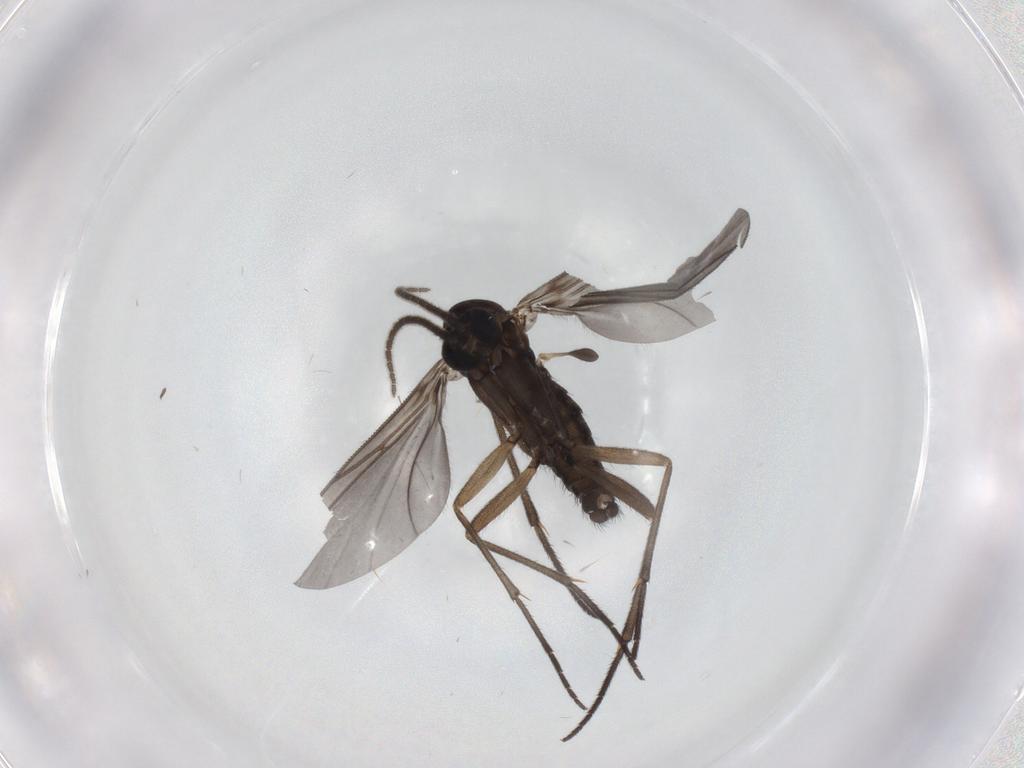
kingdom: Animalia
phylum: Arthropoda
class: Insecta
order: Diptera
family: Sciaridae
